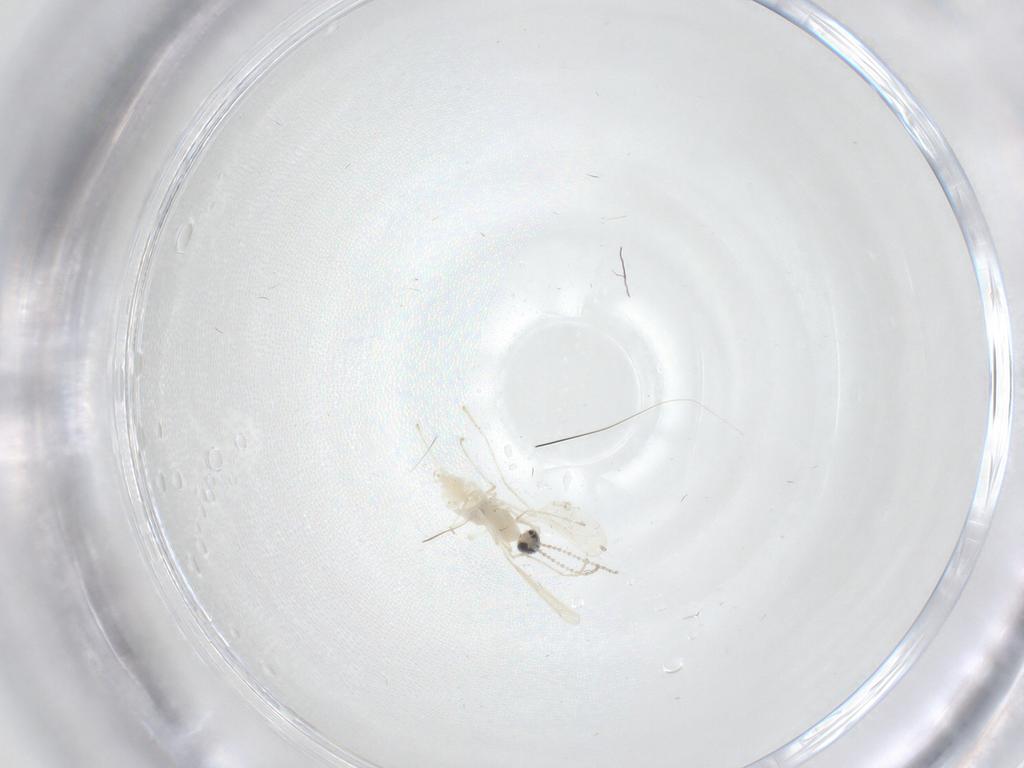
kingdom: Animalia
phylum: Arthropoda
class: Insecta
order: Diptera
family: Cecidomyiidae
